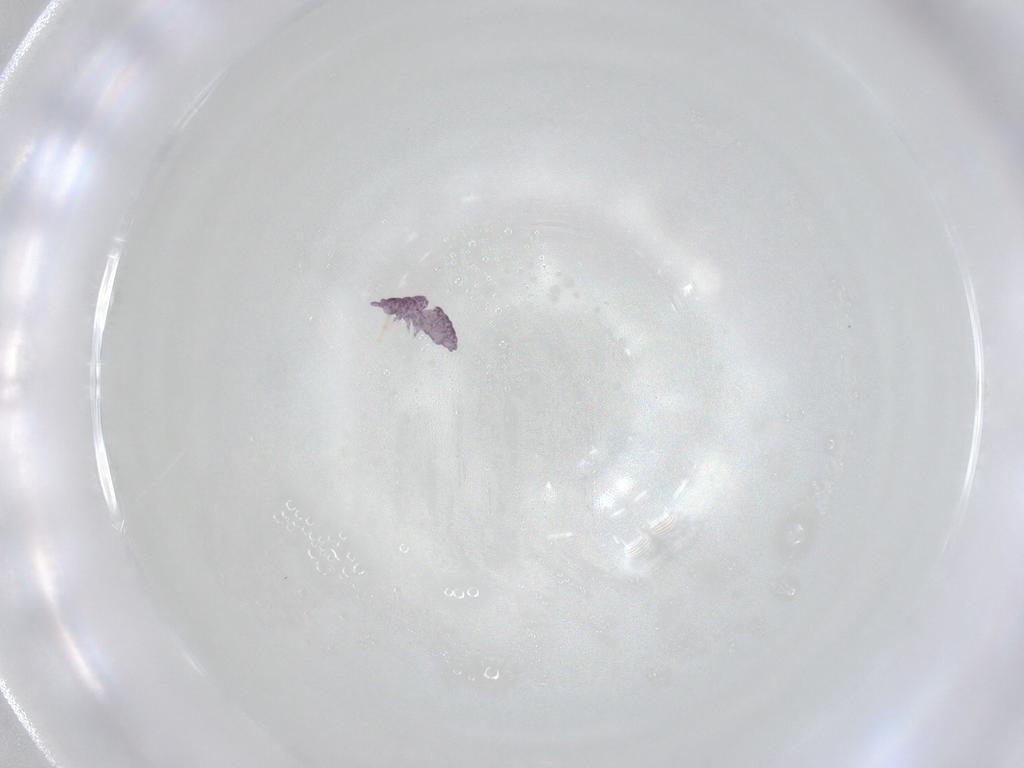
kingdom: Animalia
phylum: Arthropoda
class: Collembola
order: Poduromorpha
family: Brachystomellidae
